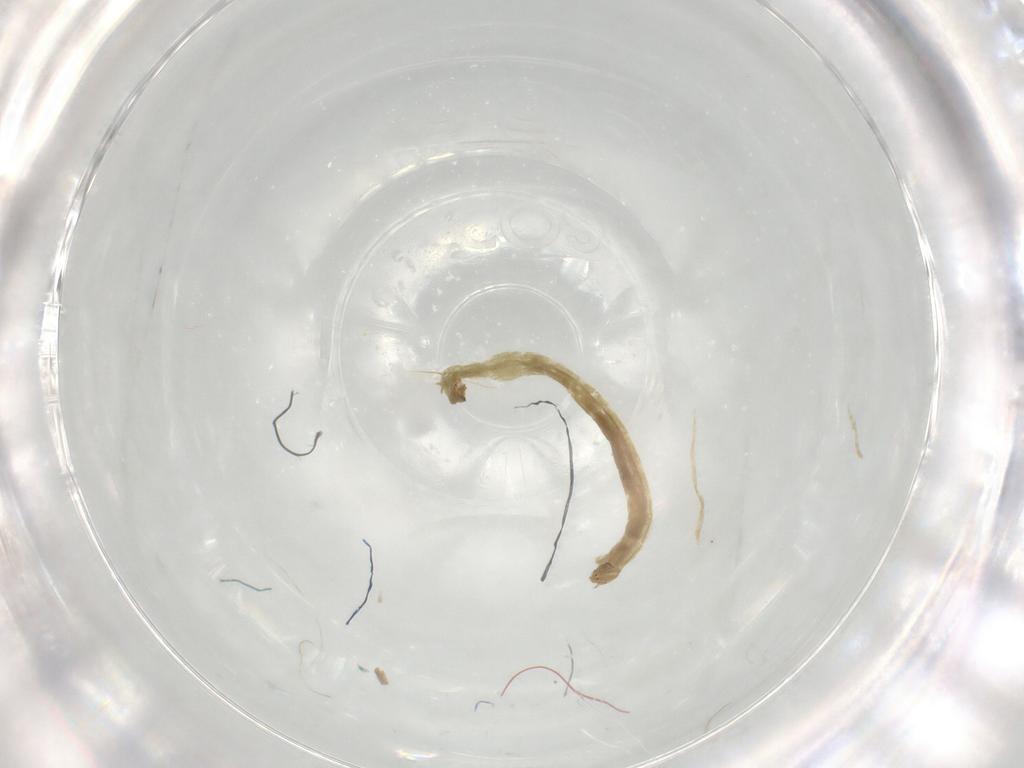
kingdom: Animalia
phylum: Arthropoda
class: Insecta
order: Diptera
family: Chironomidae
